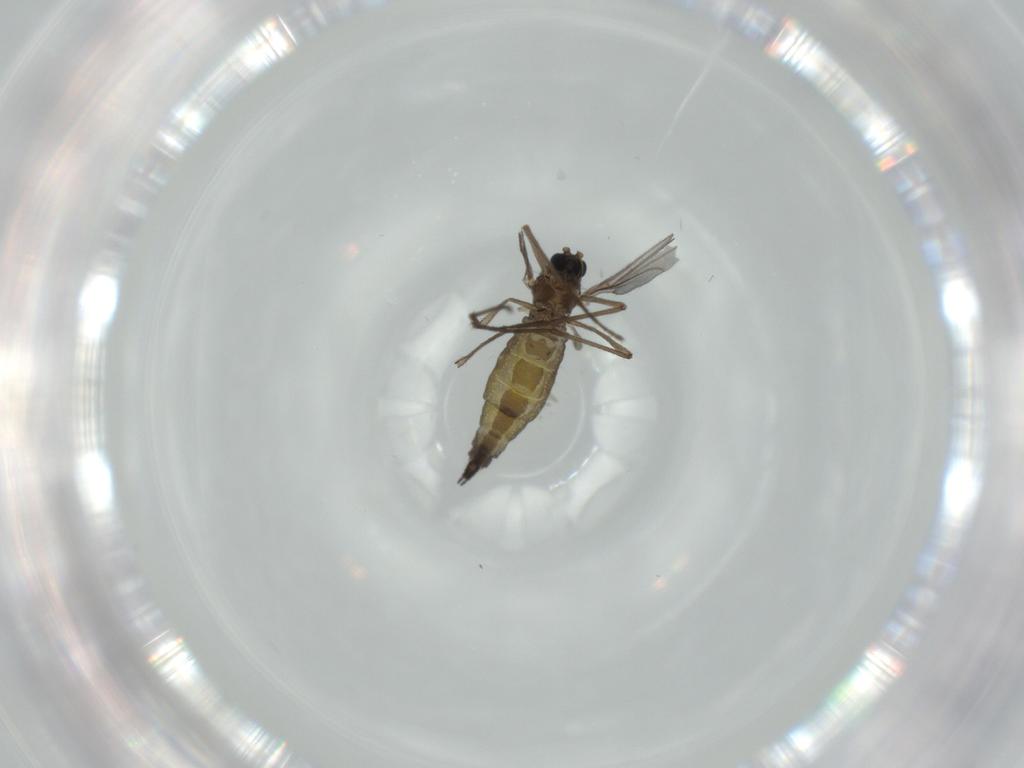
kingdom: Animalia
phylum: Arthropoda
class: Insecta
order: Diptera
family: Sciaridae
